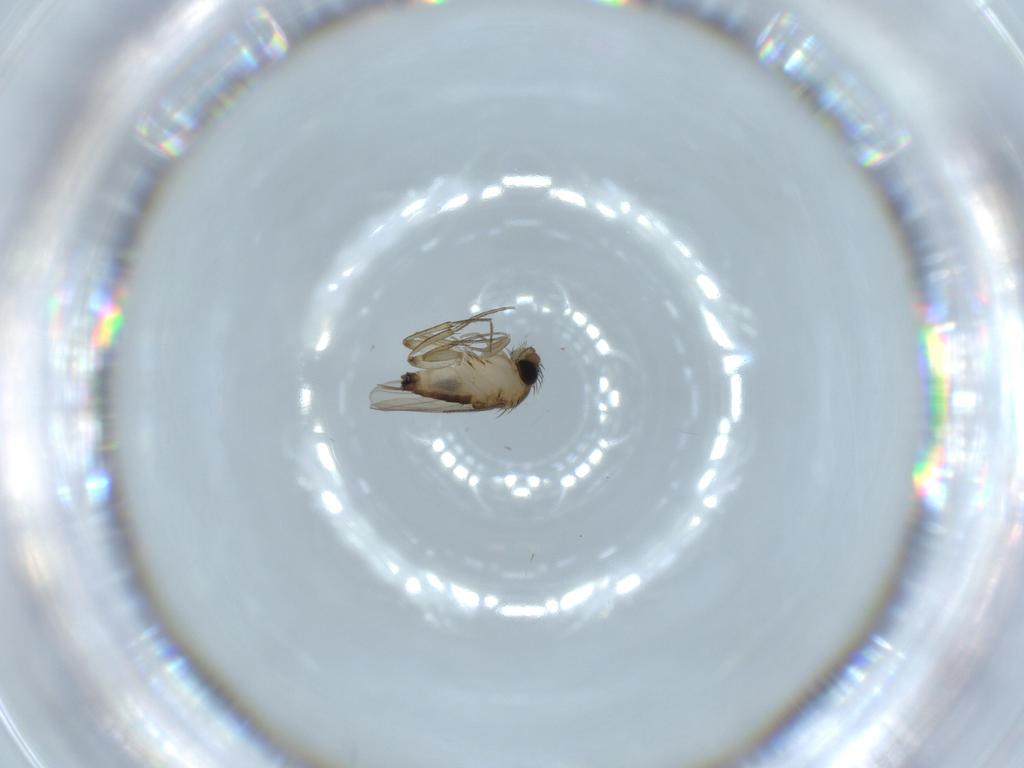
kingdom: Animalia
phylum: Arthropoda
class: Insecta
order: Diptera
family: Phoridae
